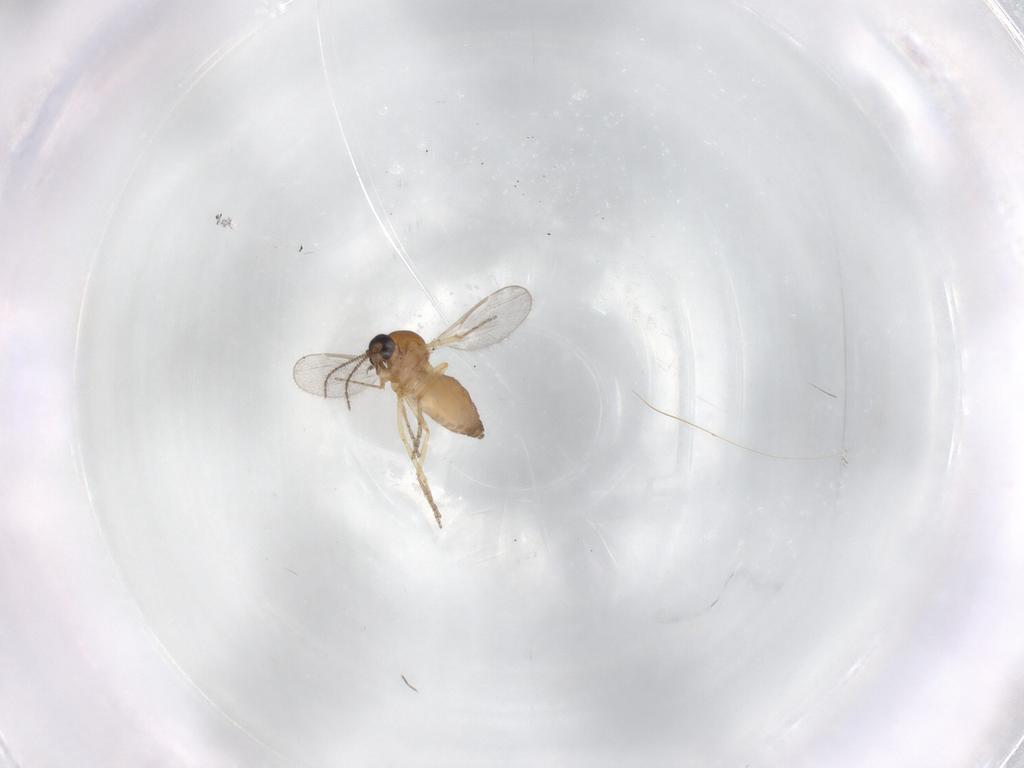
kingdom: Animalia
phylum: Arthropoda
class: Insecta
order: Diptera
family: Ceratopogonidae
